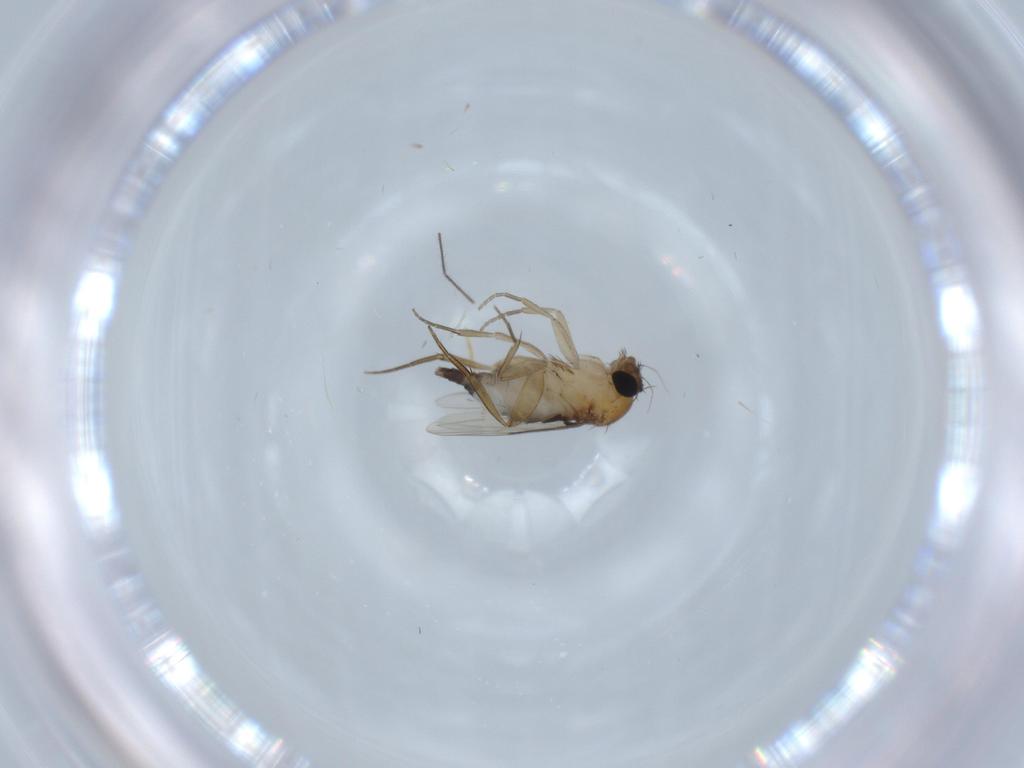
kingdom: Animalia
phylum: Arthropoda
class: Insecta
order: Diptera
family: Phoridae
